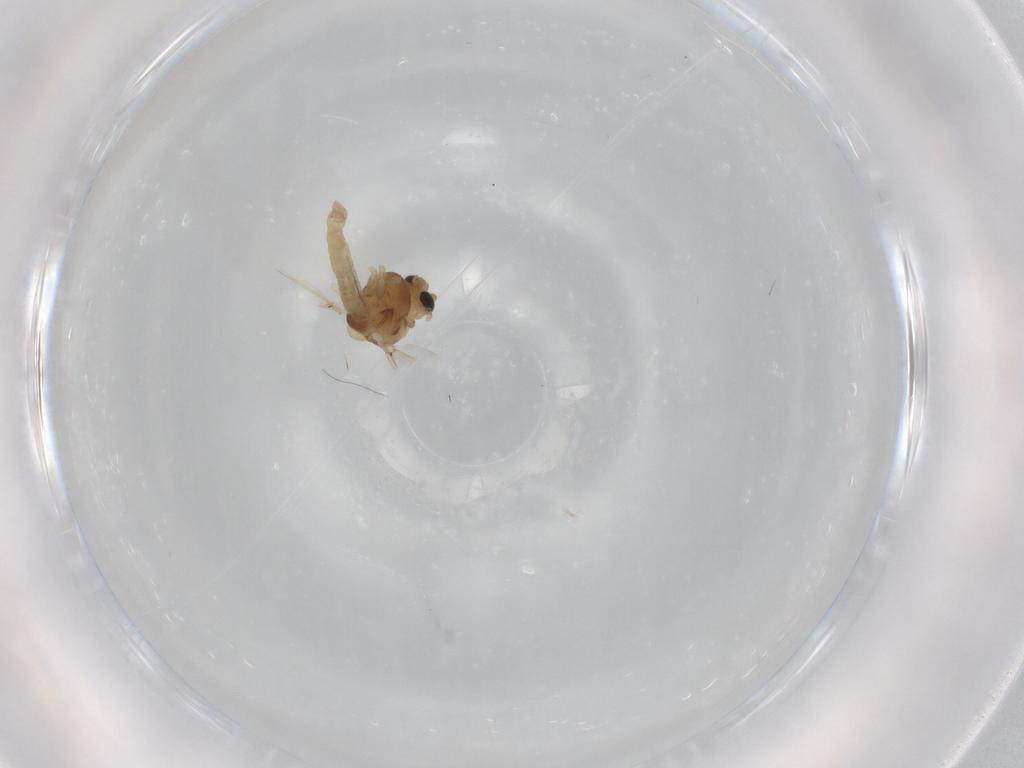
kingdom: Animalia
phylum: Arthropoda
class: Insecta
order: Diptera
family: Chironomidae
